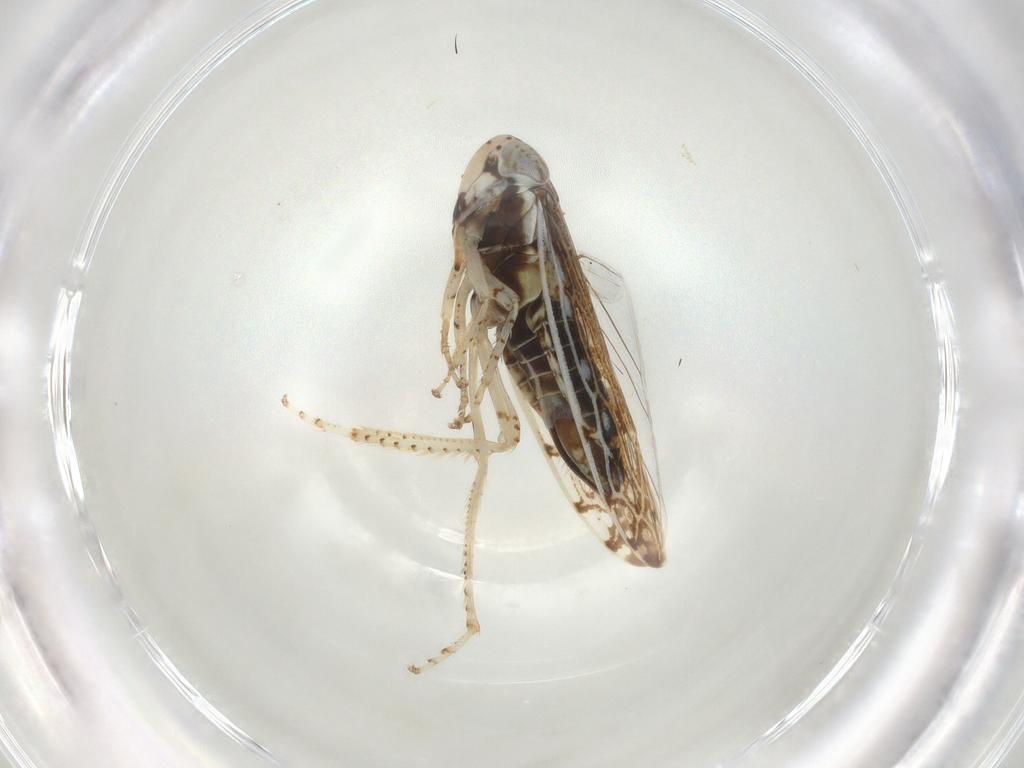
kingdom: Animalia
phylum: Arthropoda
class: Insecta
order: Hemiptera
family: Cicadellidae
